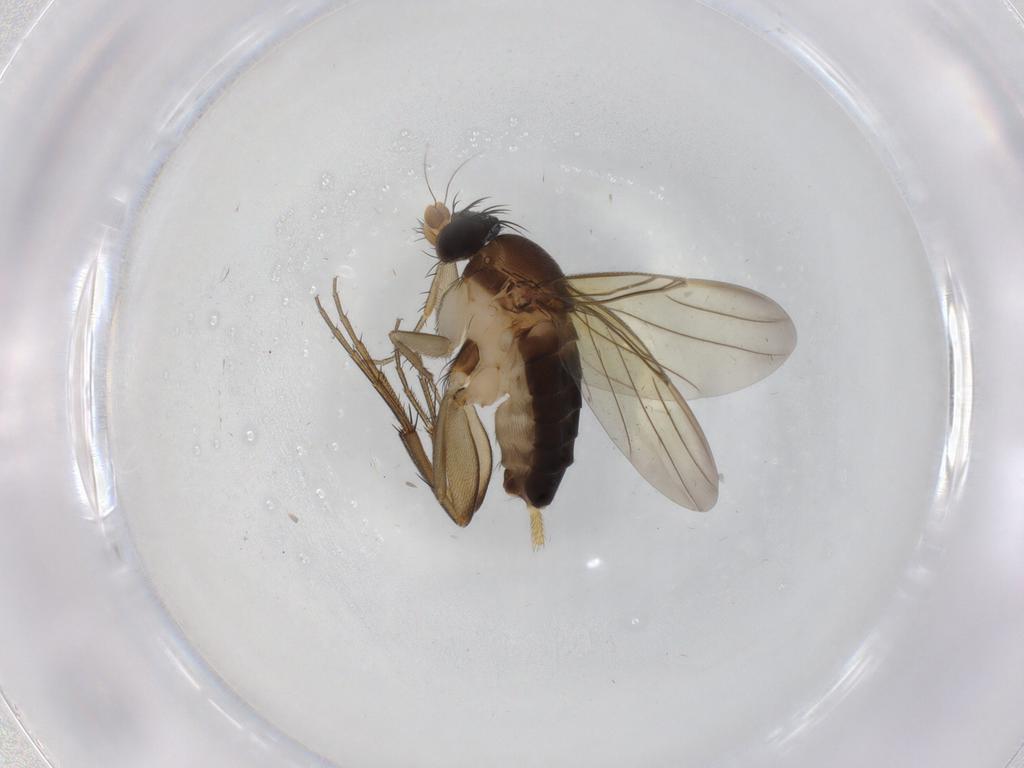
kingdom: Animalia
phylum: Arthropoda
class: Insecta
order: Diptera
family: Phoridae
